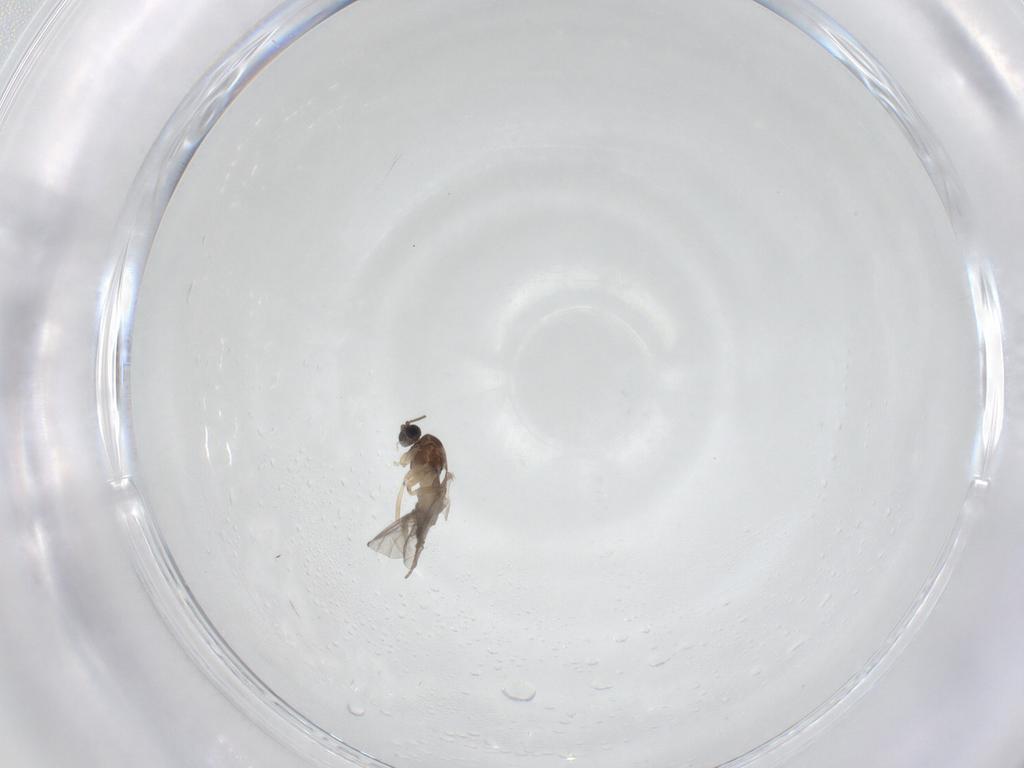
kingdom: Animalia
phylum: Arthropoda
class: Insecta
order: Diptera
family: Sciaridae
